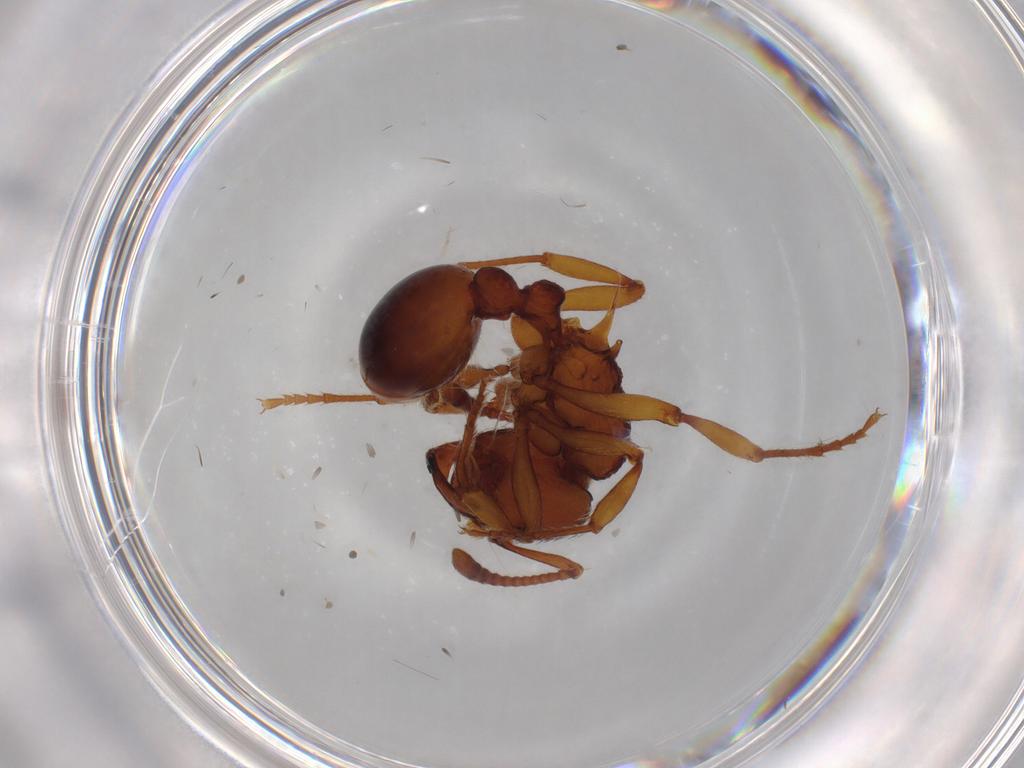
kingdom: Animalia
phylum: Arthropoda
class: Insecta
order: Hymenoptera
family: Formicidae
